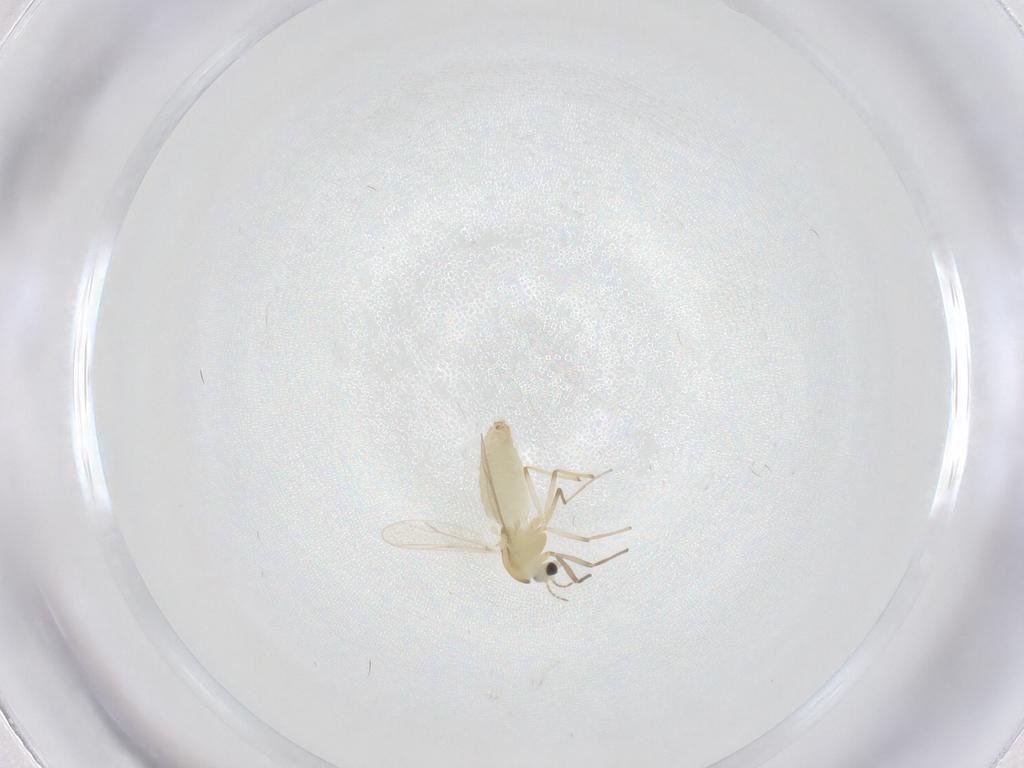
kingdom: Animalia
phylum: Arthropoda
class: Insecta
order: Diptera
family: Chironomidae
